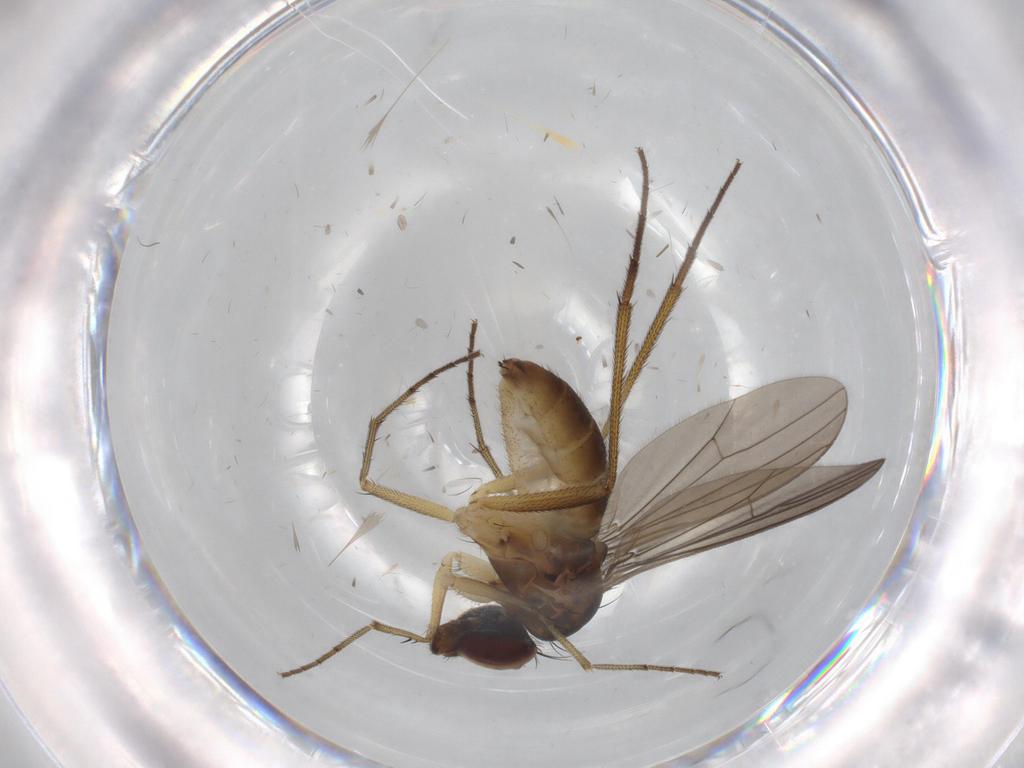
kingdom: Animalia
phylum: Arthropoda
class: Insecta
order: Diptera
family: Dolichopodidae
